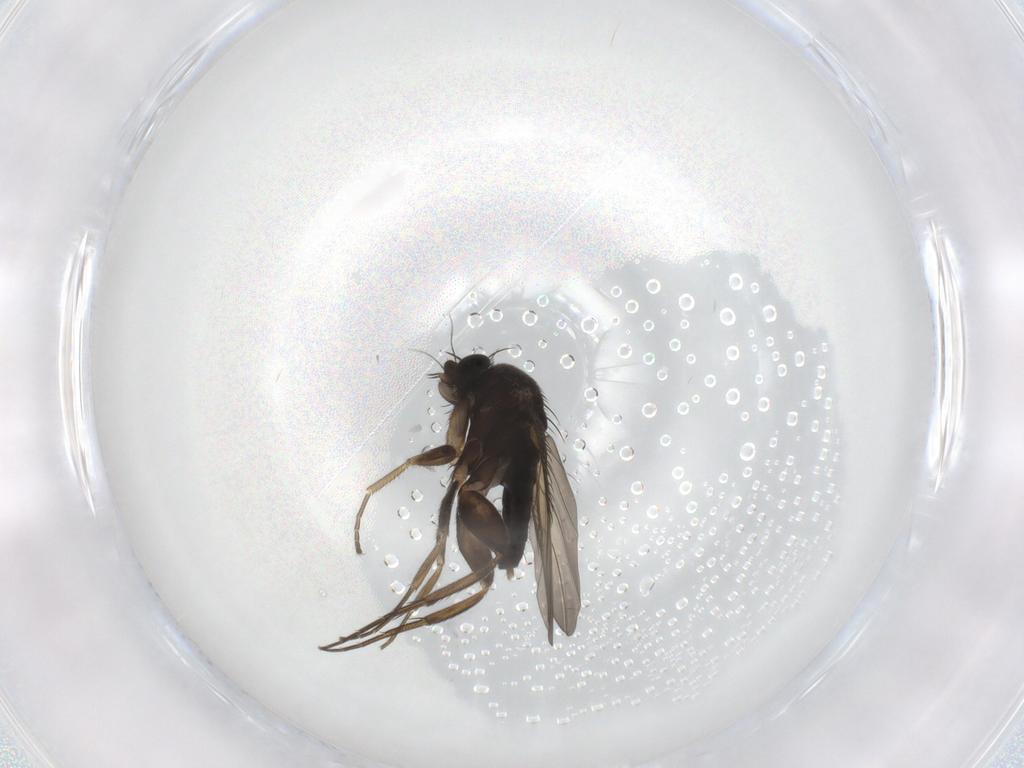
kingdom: Animalia
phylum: Arthropoda
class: Insecta
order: Diptera
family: Phoridae
